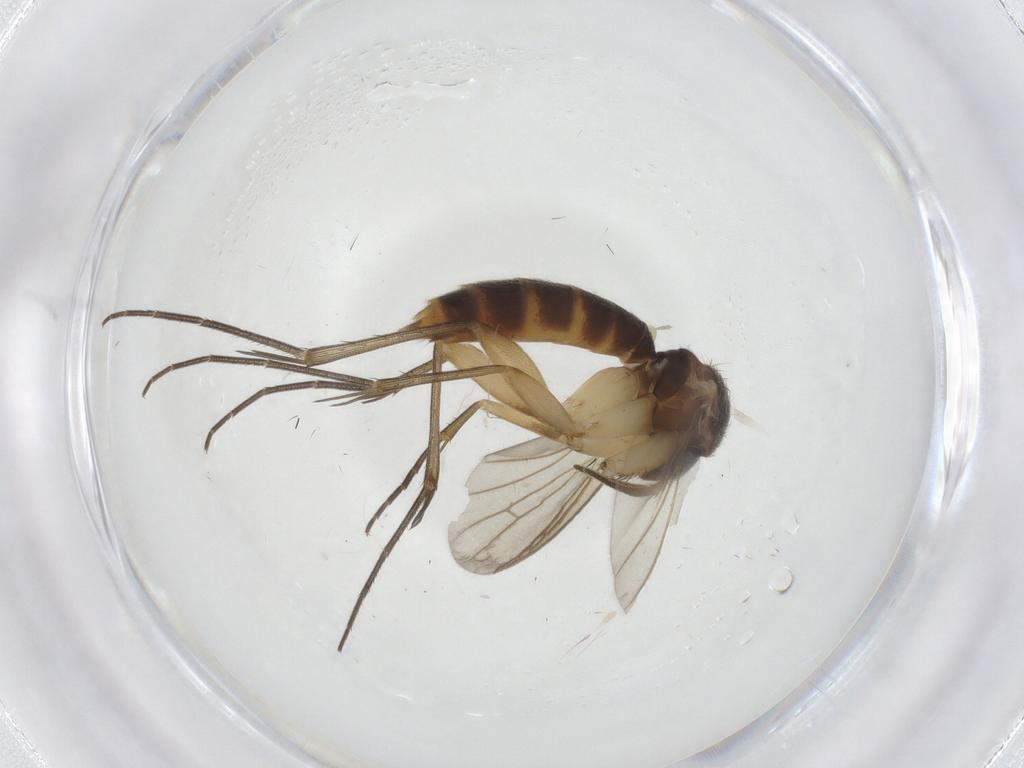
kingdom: Animalia
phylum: Arthropoda
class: Insecta
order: Diptera
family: Mycetophilidae
